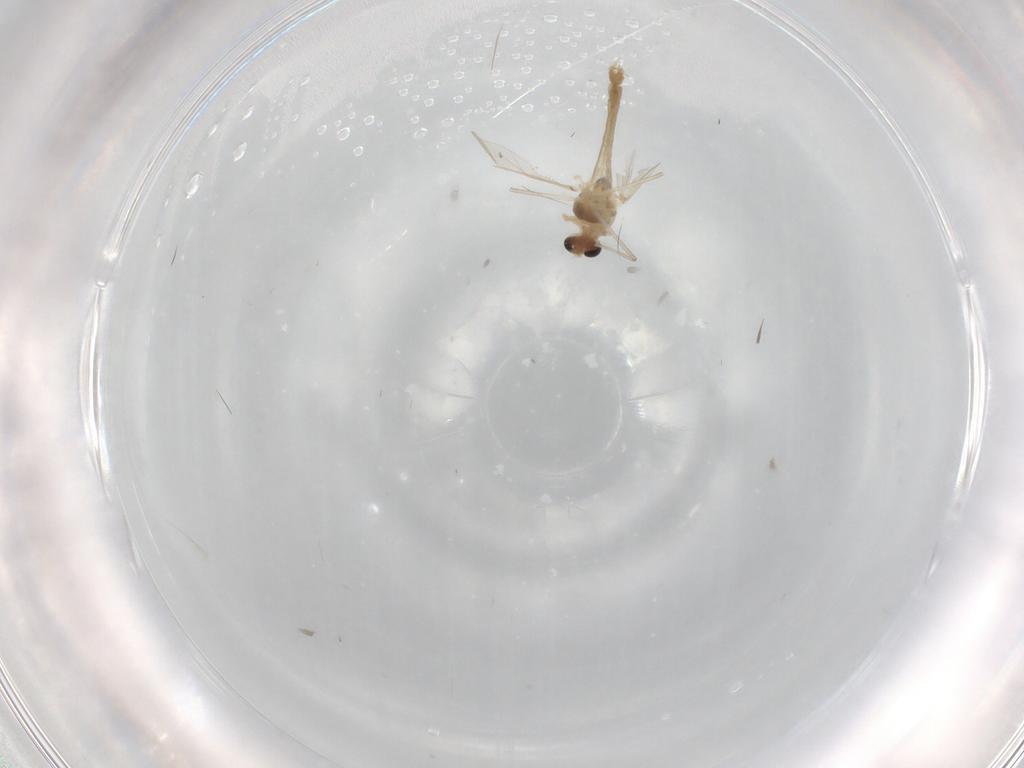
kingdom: Animalia
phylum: Arthropoda
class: Insecta
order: Diptera
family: Chironomidae
